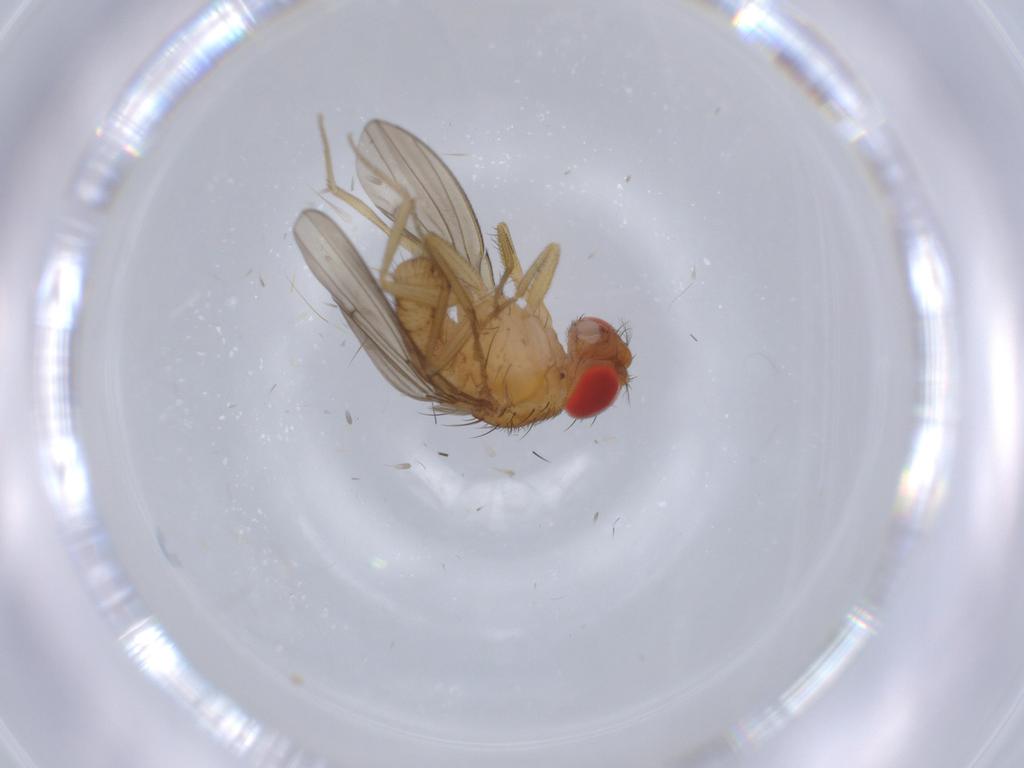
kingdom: Animalia
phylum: Arthropoda
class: Insecta
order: Diptera
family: Drosophilidae
